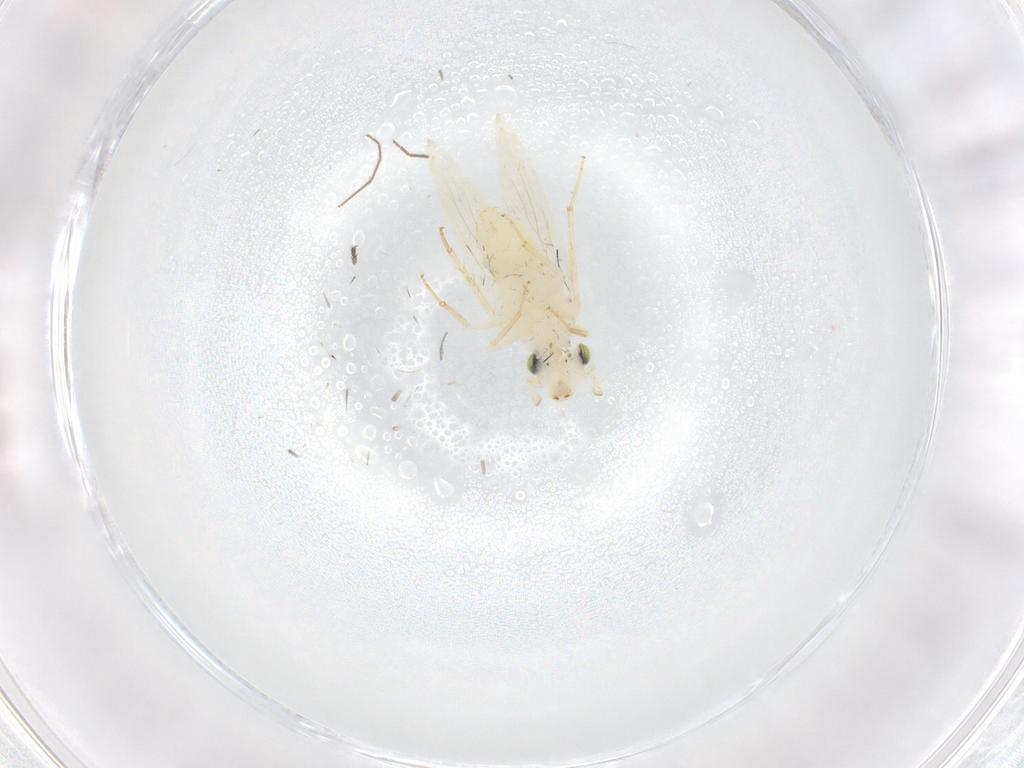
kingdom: Animalia
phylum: Arthropoda
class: Insecta
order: Psocodea
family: Lepidopsocidae
